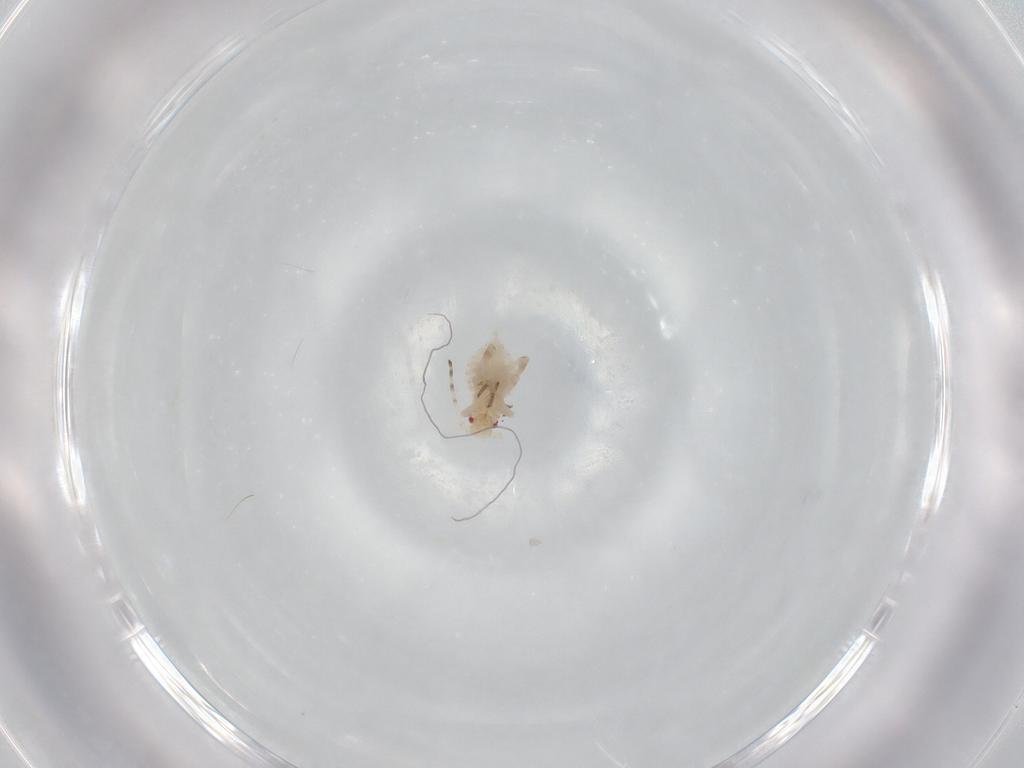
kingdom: Animalia
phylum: Arthropoda
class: Insecta
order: Hemiptera
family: Aphididae
